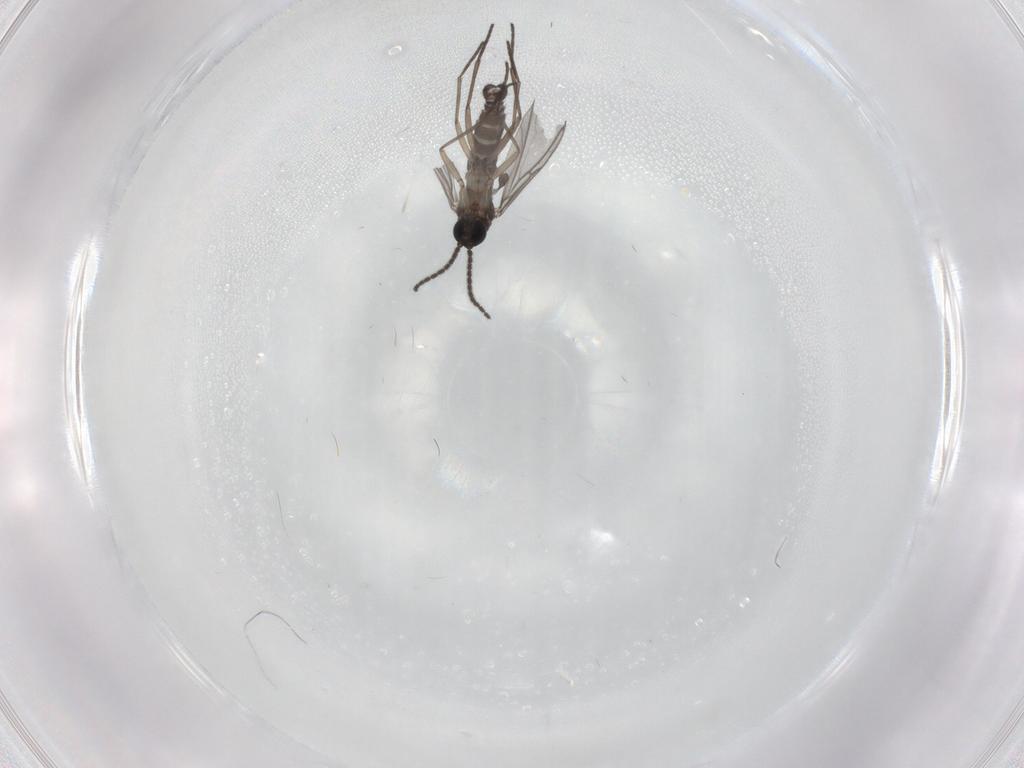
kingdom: Animalia
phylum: Arthropoda
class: Insecta
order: Diptera
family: Sciaridae
